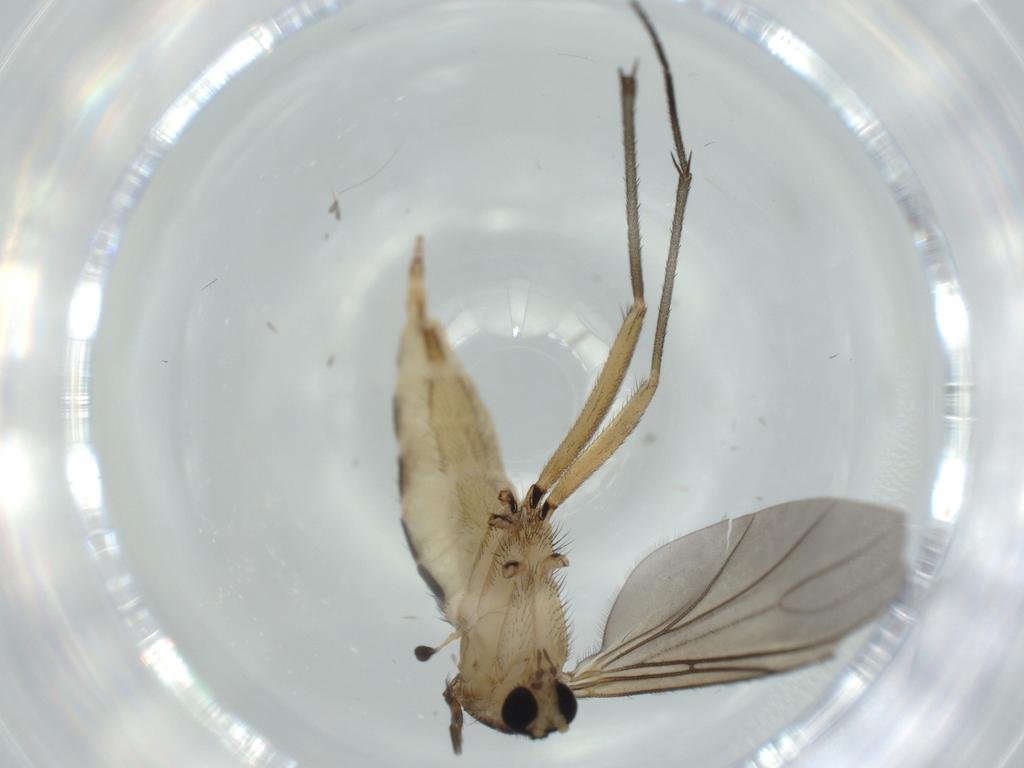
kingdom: Animalia
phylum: Arthropoda
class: Insecta
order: Diptera
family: Sciaridae
